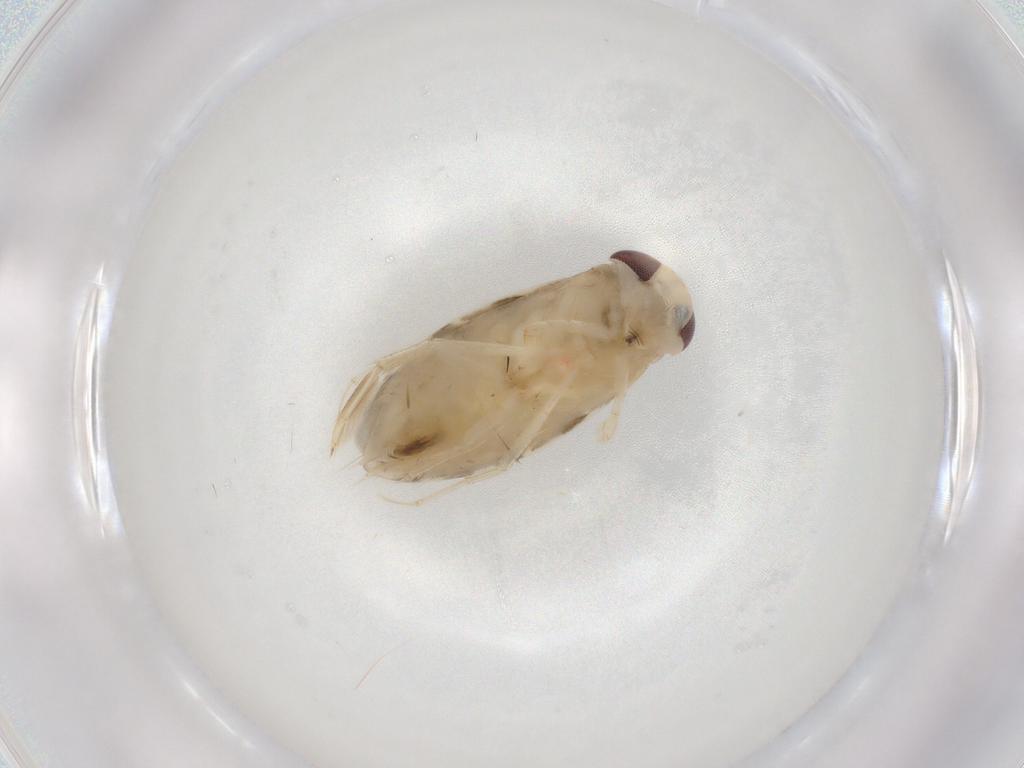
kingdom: Animalia
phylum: Arthropoda
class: Insecta
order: Hemiptera
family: Corixidae
